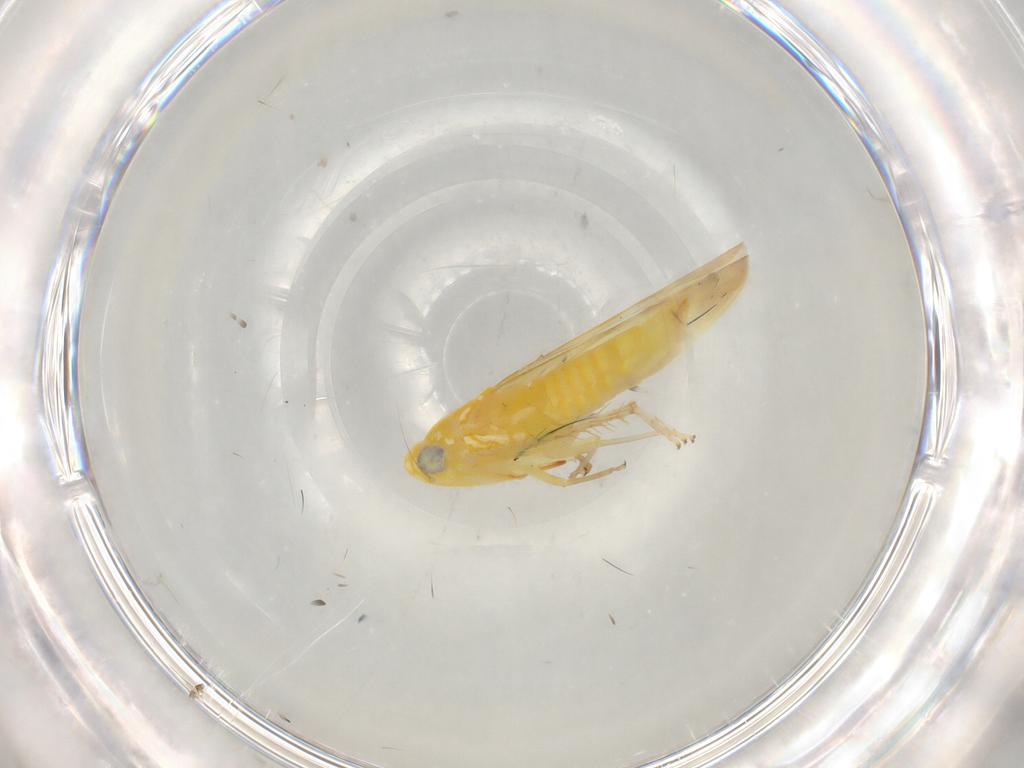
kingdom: Animalia
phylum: Arthropoda
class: Insecta
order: Hemiptera
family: Cicadellidae
